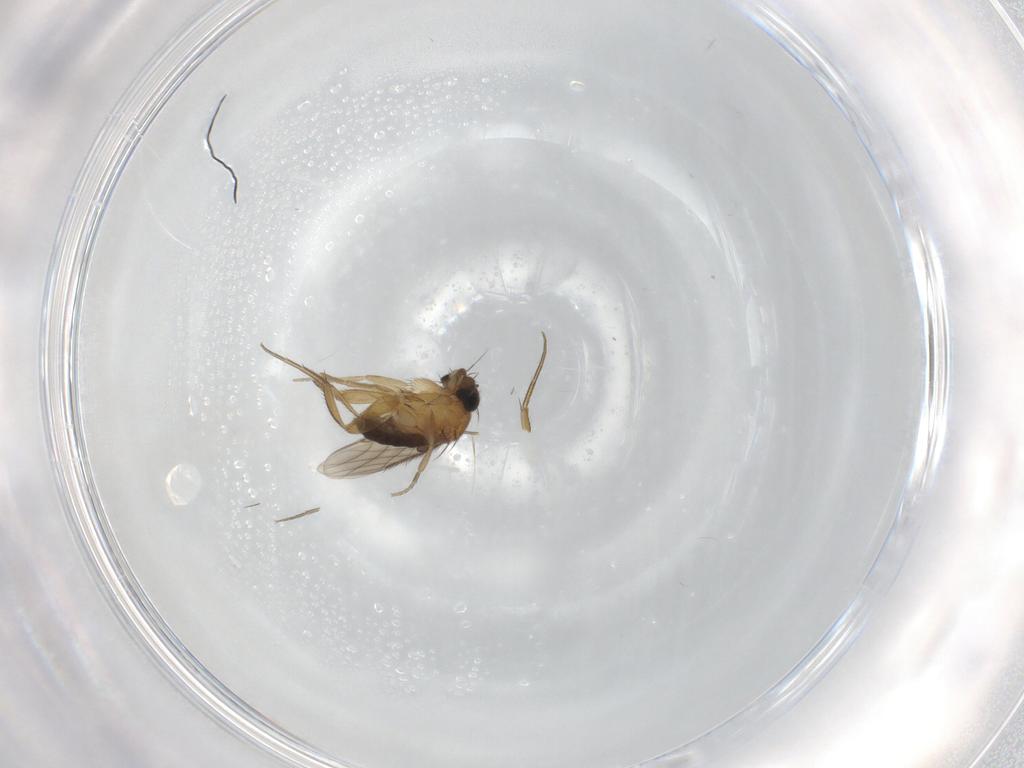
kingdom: Animalia
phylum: Arthropoda
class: Insecta
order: Diptera
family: Phoridae
